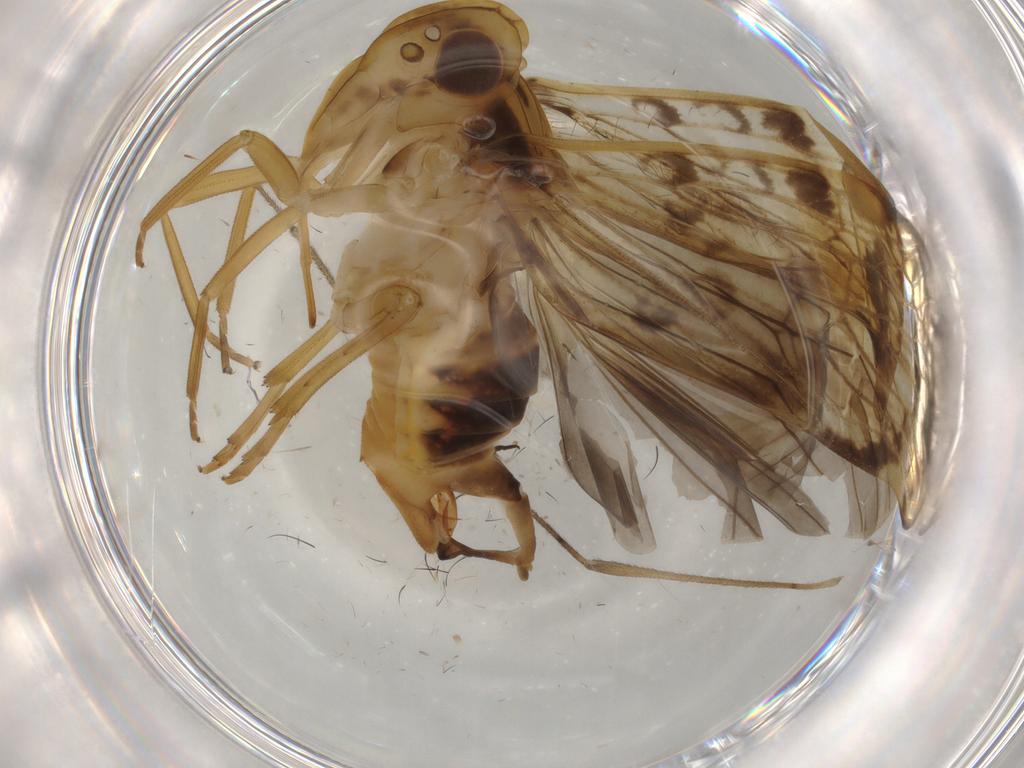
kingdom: Animalia
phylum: Arthropoda
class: Insecta
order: Hemiptera
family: Cixiidae
